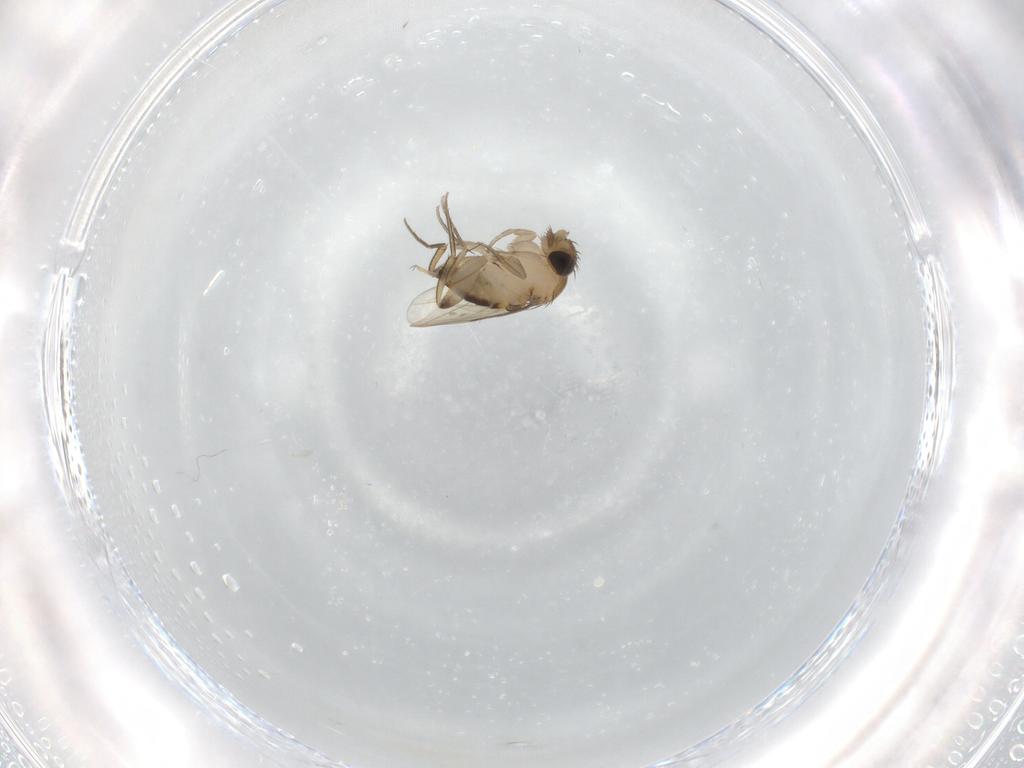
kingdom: Animalia
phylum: Arthropoda
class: Insecta
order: Diptera
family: Phoridae
